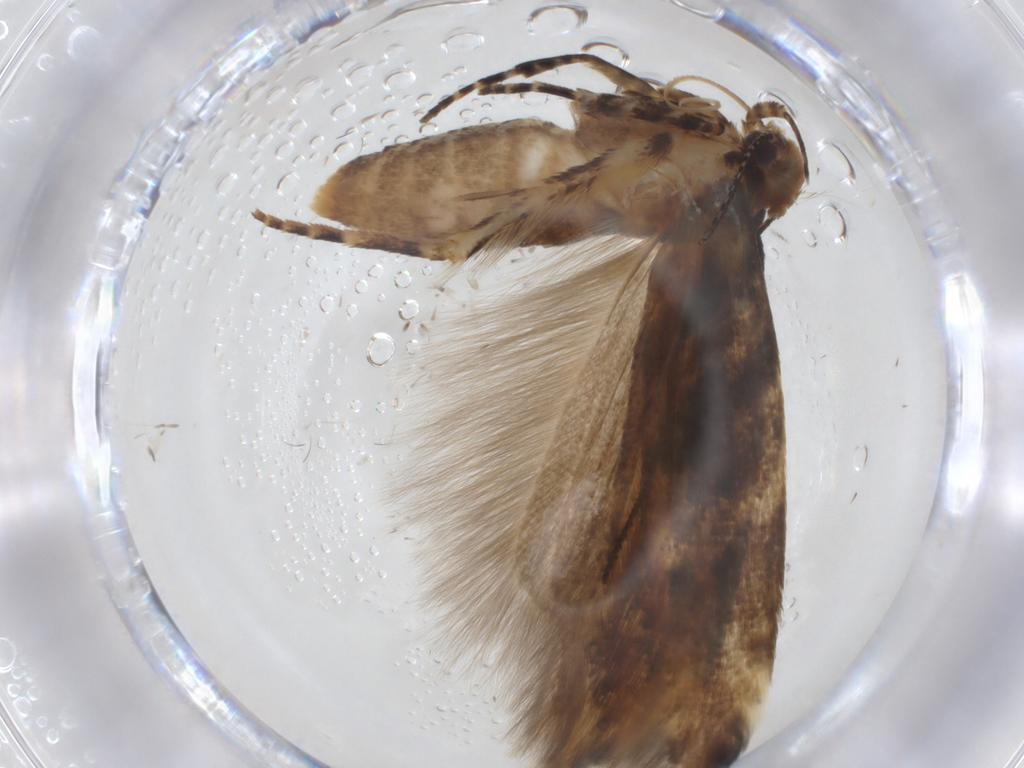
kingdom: Animalia
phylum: Arthropoda
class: Insecta
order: Lepidoptera
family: Gelechiidae
